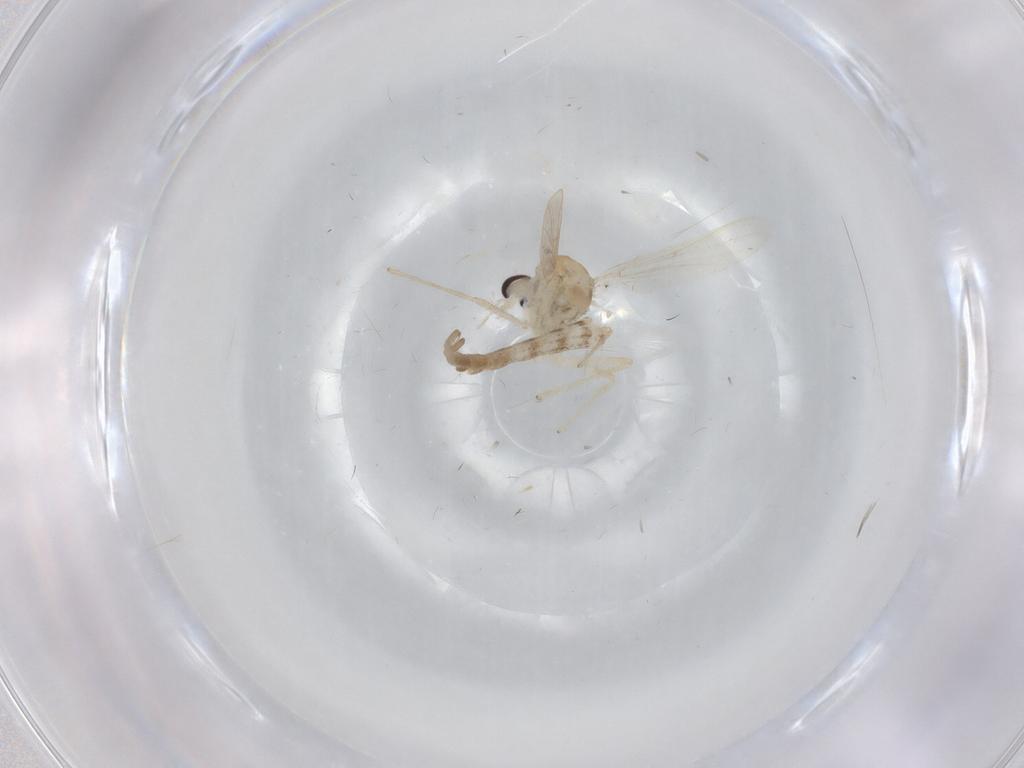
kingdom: Animalia
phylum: Arthropoda
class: Insecta
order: Diptera
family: Chironomidae
